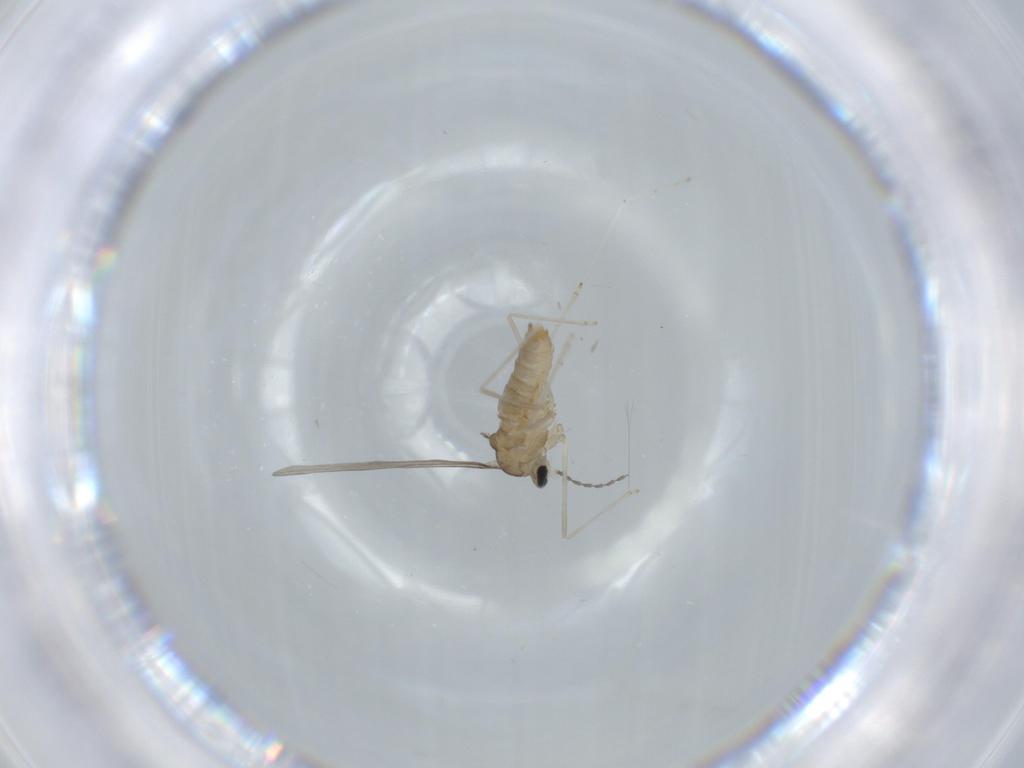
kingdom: Animalia
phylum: Arthropoda
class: Insecta
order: Diptera
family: Cecidomyiidae
